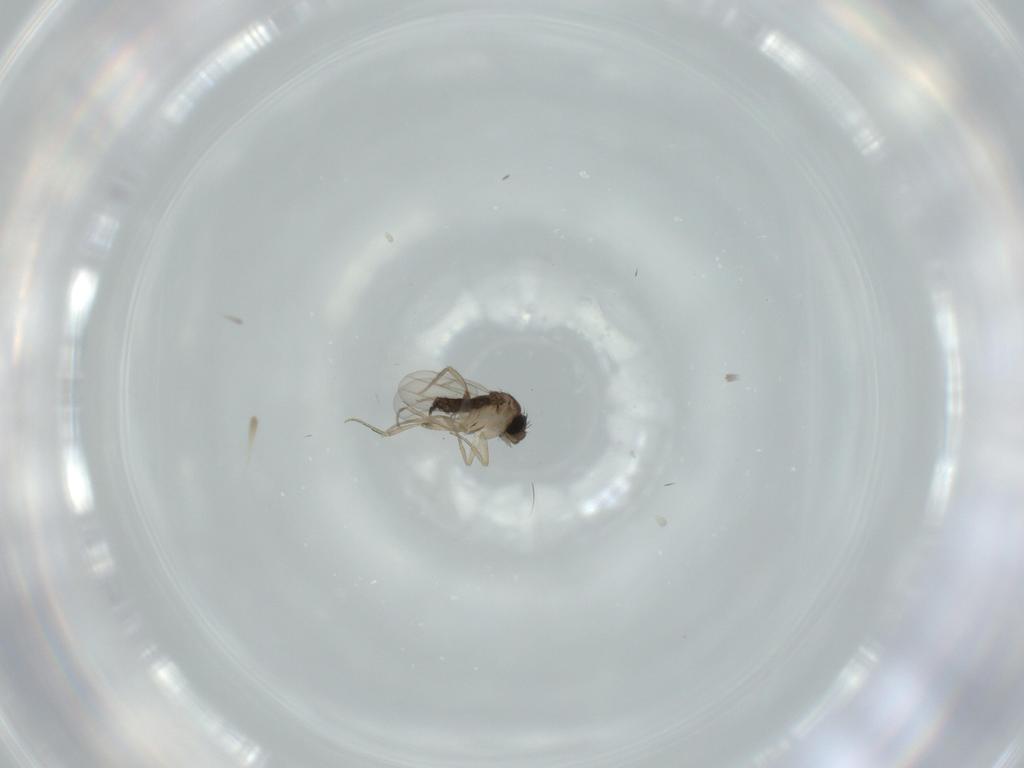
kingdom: Animalia
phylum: Arthropoda
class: Insecta
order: Diptera
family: Phoridae
